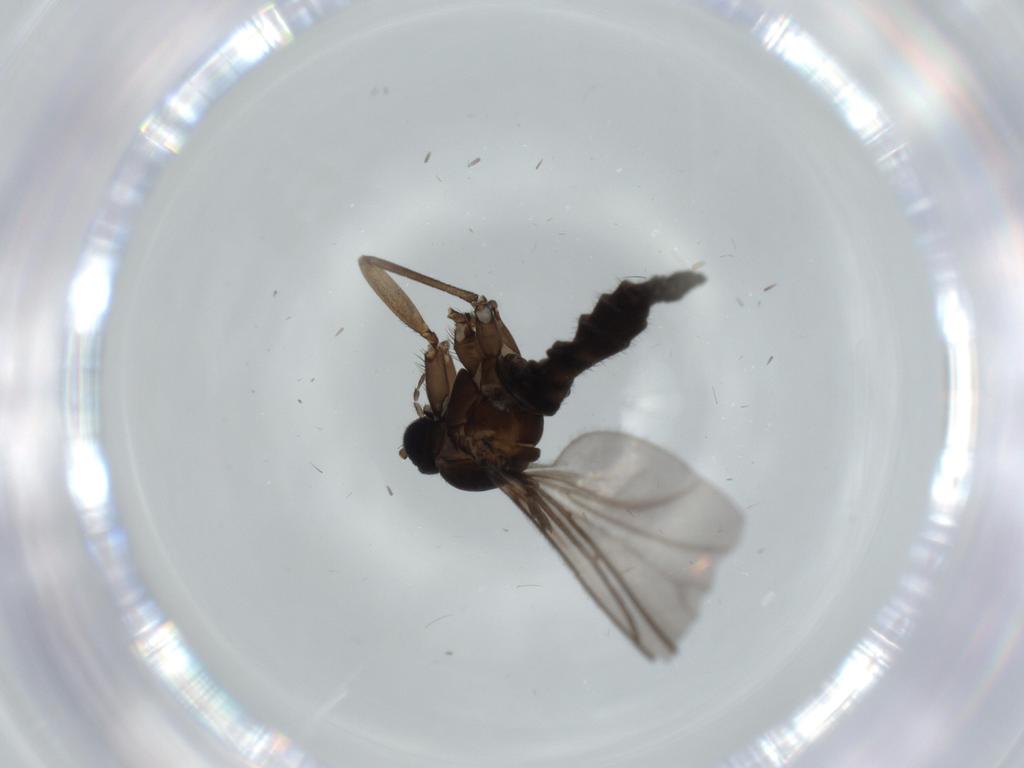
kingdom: Animalia
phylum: Arthropoda
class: Insecta
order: Diptera
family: Sciaridae
